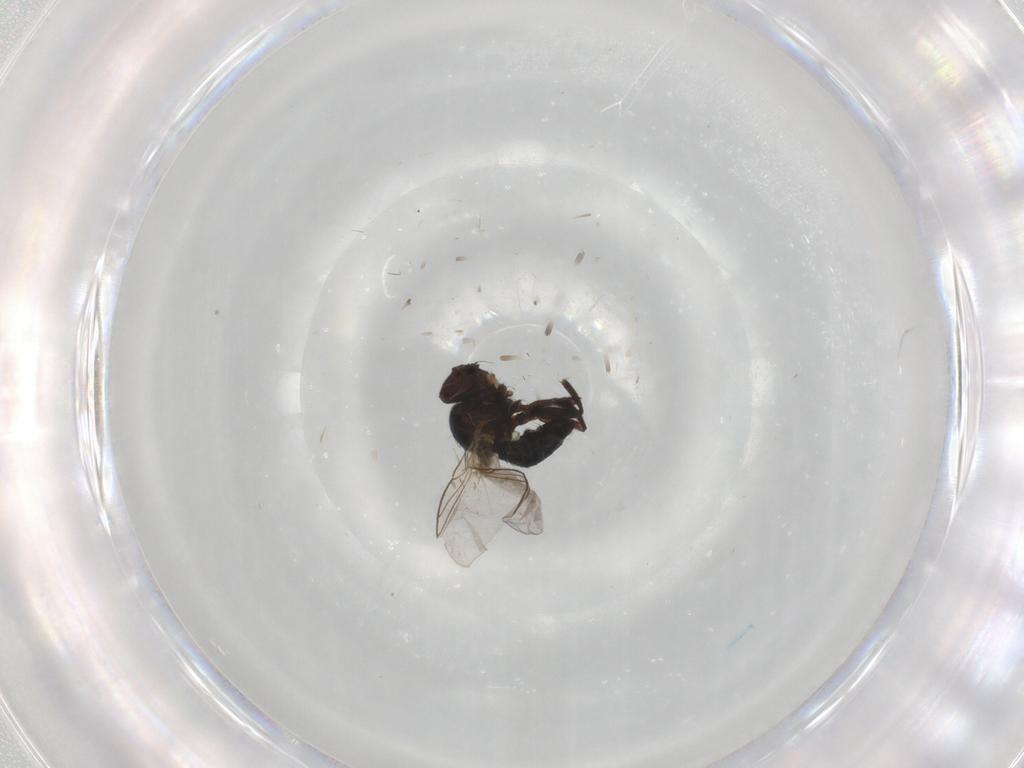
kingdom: Animalia
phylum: Arthropoda
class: Insecta
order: Diptera
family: Agromyzidae
